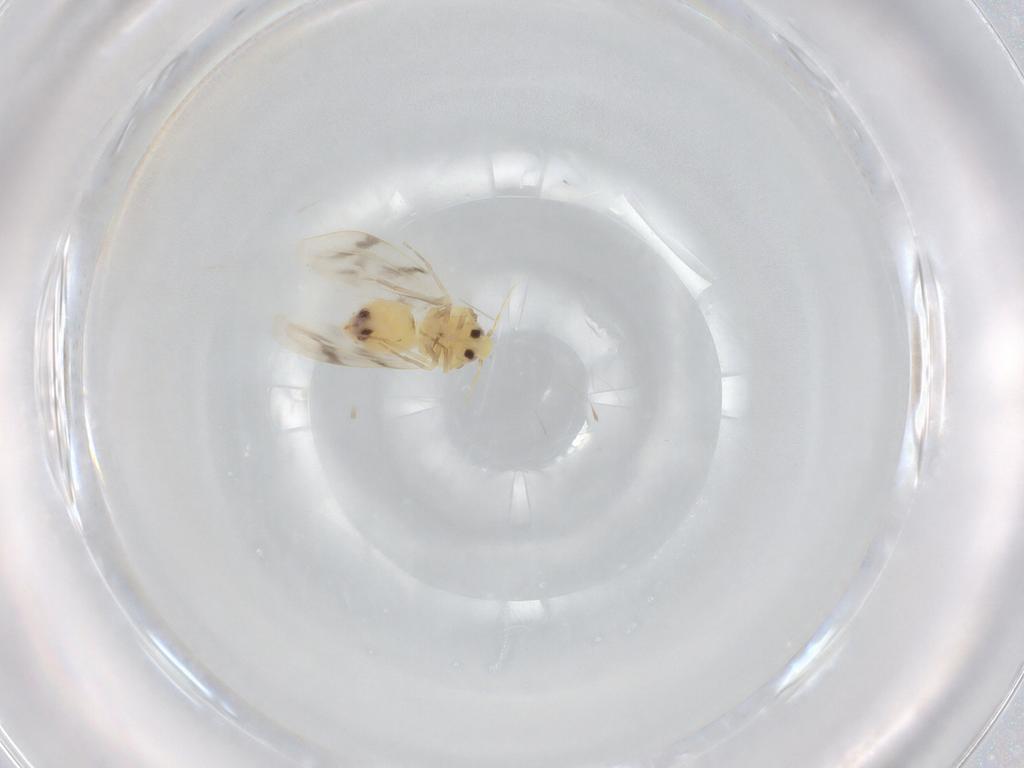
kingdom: Animalia
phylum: Arthropoda
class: Insecta
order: Hemiptera
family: Aleyrodidae
